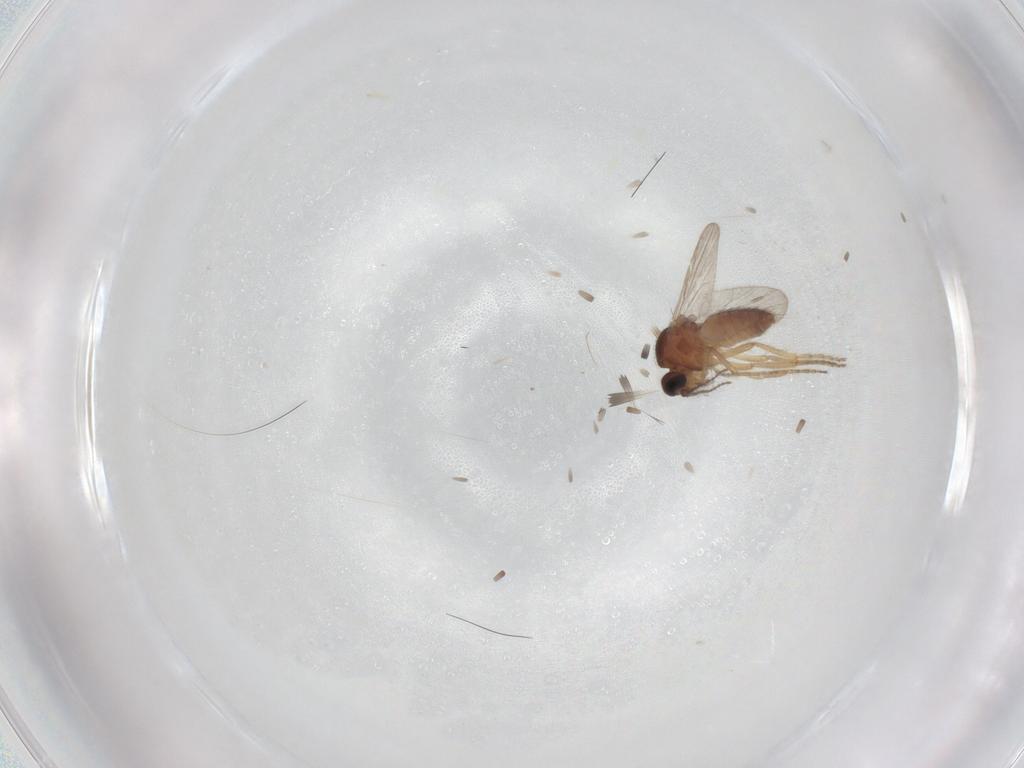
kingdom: Animalia
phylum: Arthropoda
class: Insecta
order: Diptera
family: Ceratopogonidae
